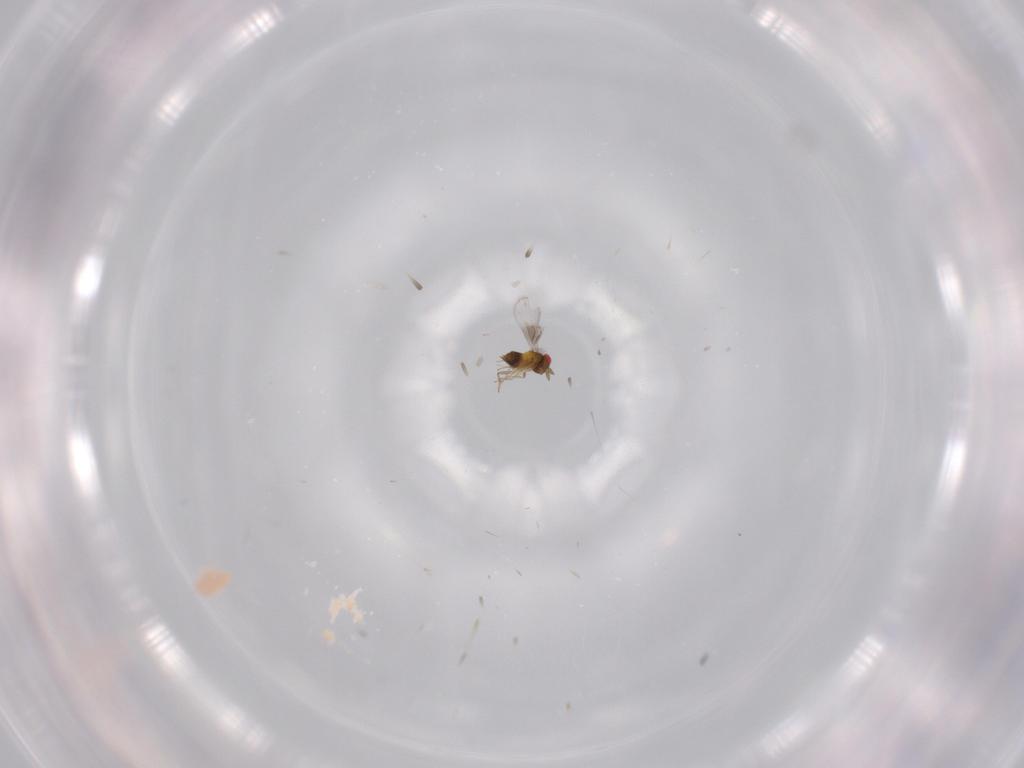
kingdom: Animalia
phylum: Arthropoda
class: Insecta
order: Hymenoptera
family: Trichogrammatidae
